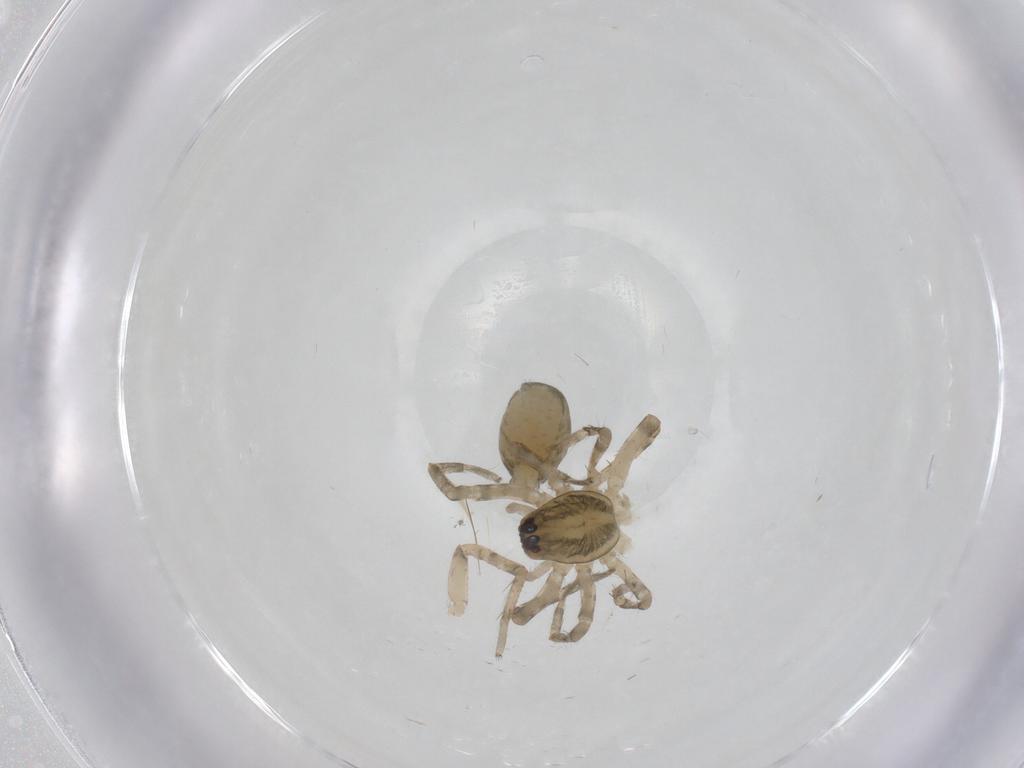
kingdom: Animalia
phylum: Arthropoda
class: Arachnida
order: Araneae
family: Anyphaenidae
